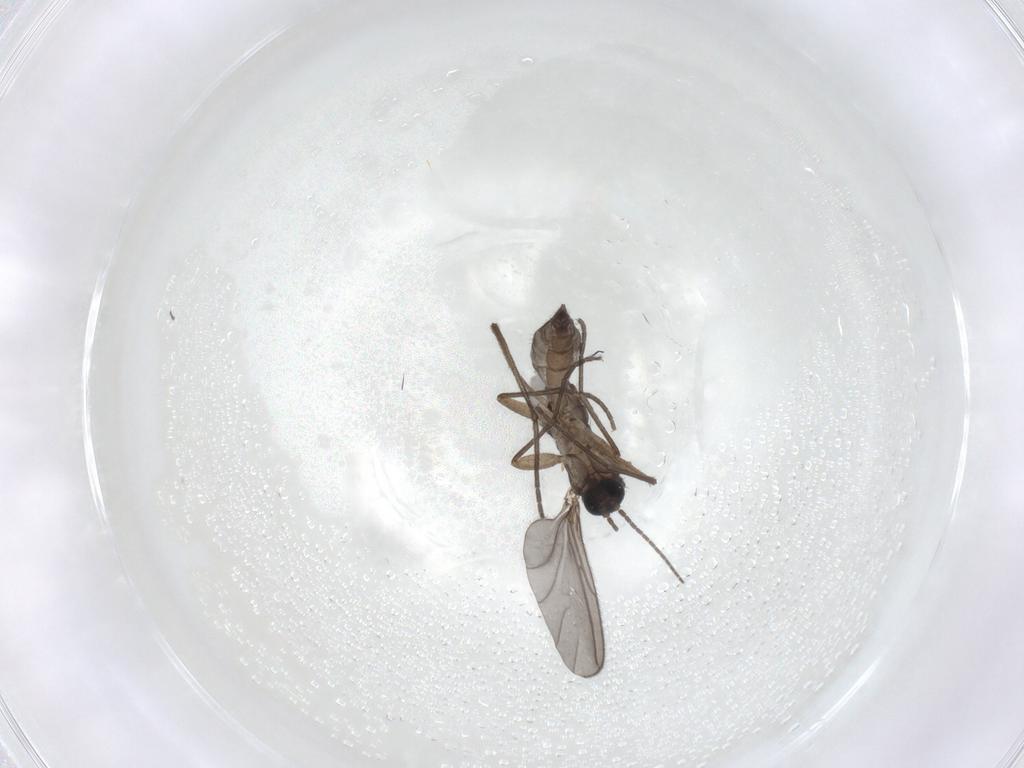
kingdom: Animalia
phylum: Arthropoda
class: Insecta
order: Diptera
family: Sciaridae
